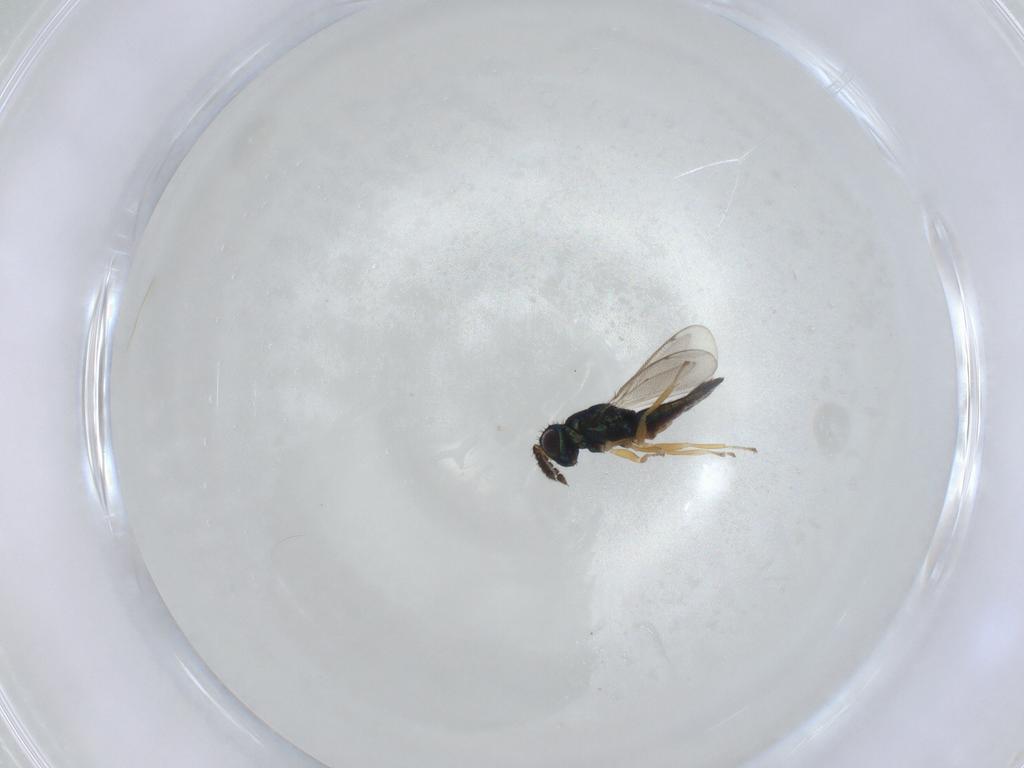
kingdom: Animalia
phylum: Arthropoda
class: Insecta
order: Hymenoptera
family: Eulophidae
